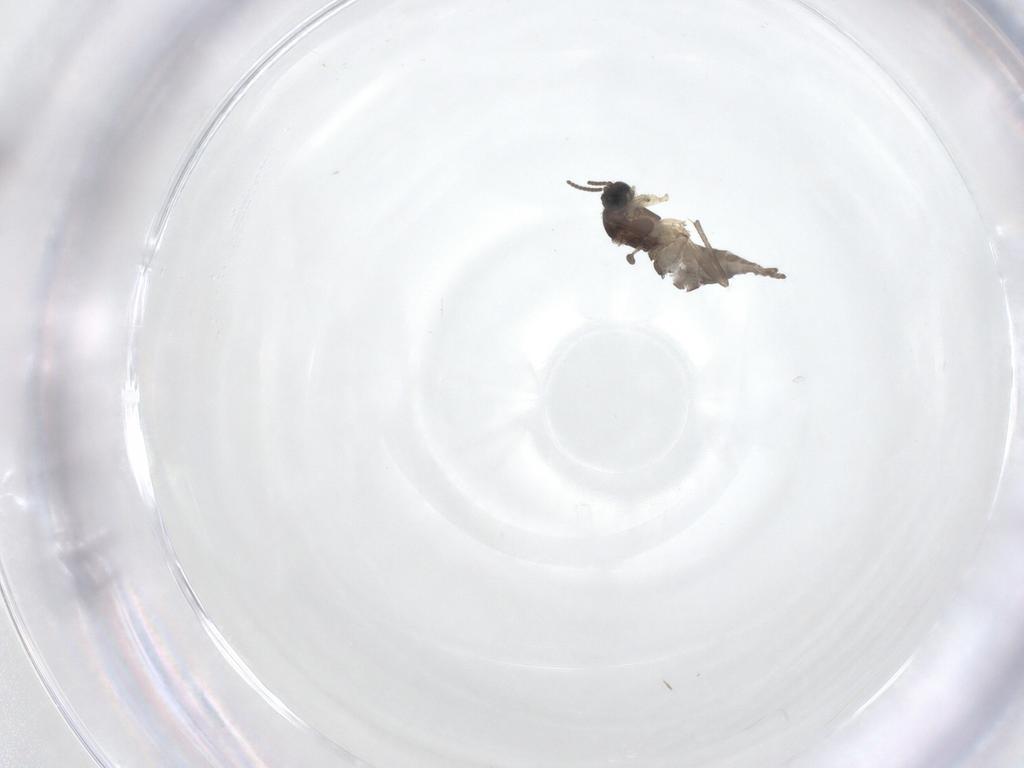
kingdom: Animalia
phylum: Arthropoda
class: Insecta
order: Diptera
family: Sciaridae
